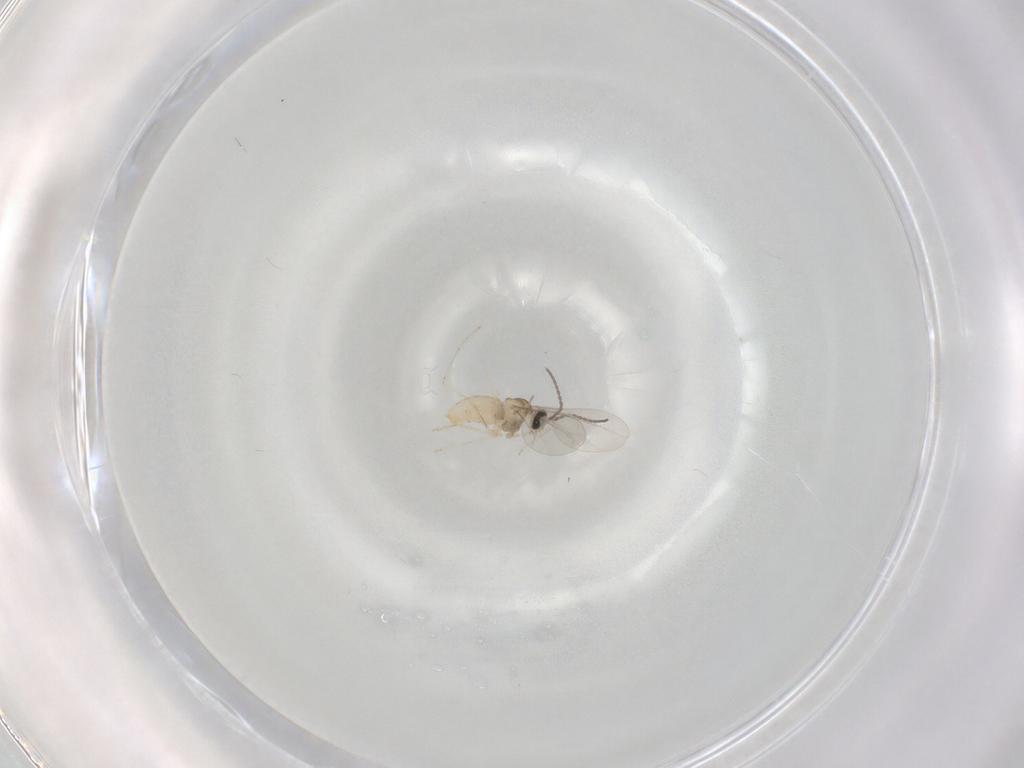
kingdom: Animalia
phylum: Arthropoda
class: Insecta
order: Diptera
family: Cecidomyiidae
